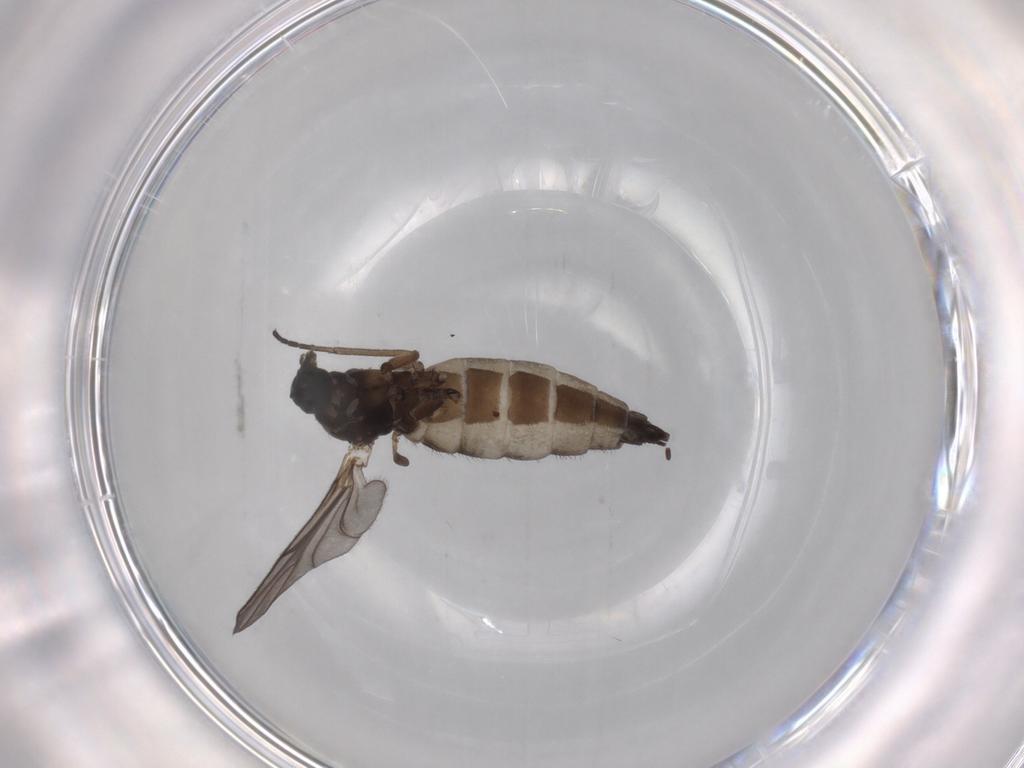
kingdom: Animalia
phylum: Arthropoda
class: Insecta
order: Diptera
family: Sciaridae
